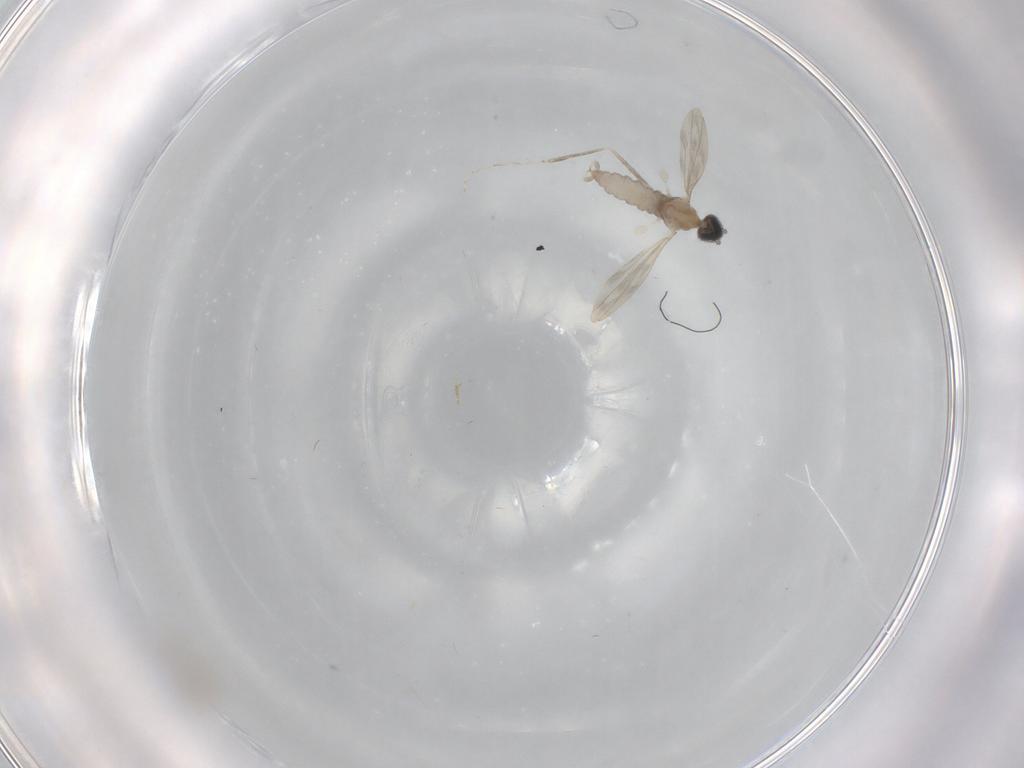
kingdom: Animalia
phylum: Arthropoda
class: Insecta
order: Diptera
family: Cecidomyiidae
